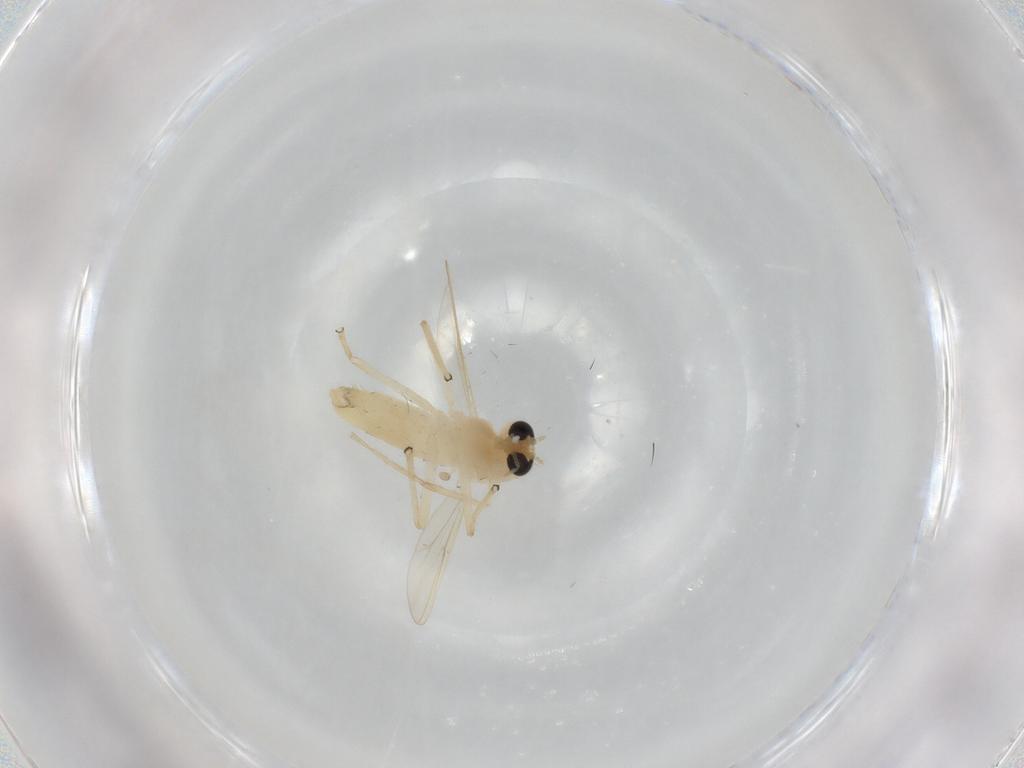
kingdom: Animalia
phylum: Arthropoda
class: Insecta
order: Diptera
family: Chironomidae
